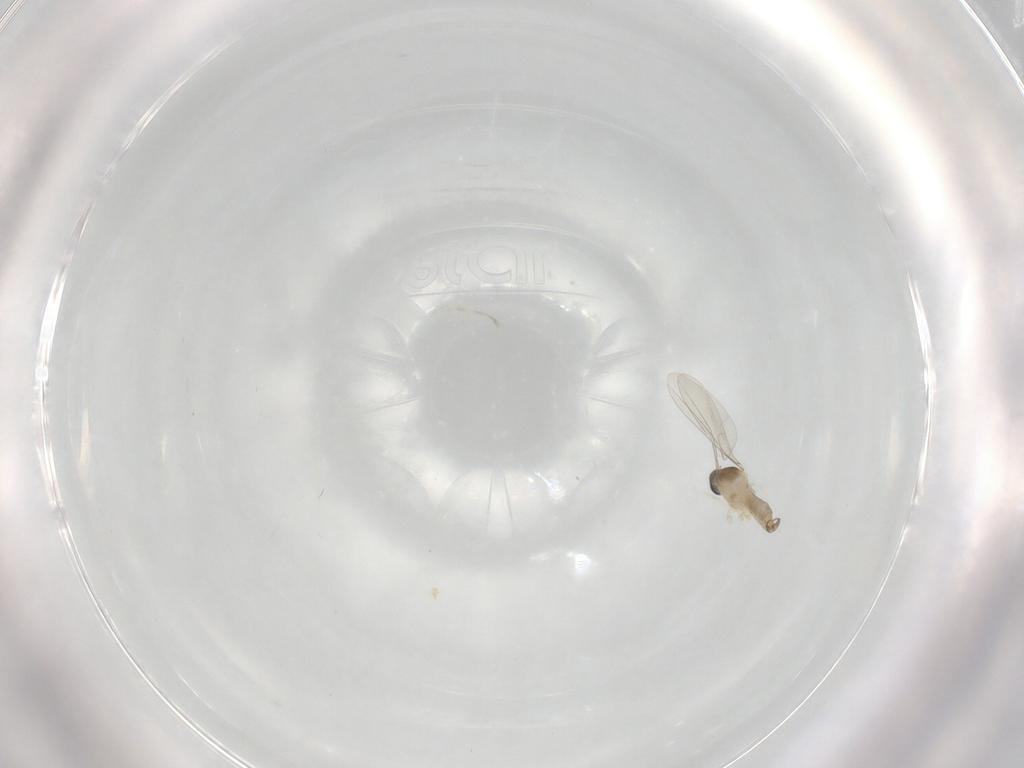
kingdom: Animalia
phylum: Arthropoda
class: Insecta
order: Diptera
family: Cecidomyiidae
